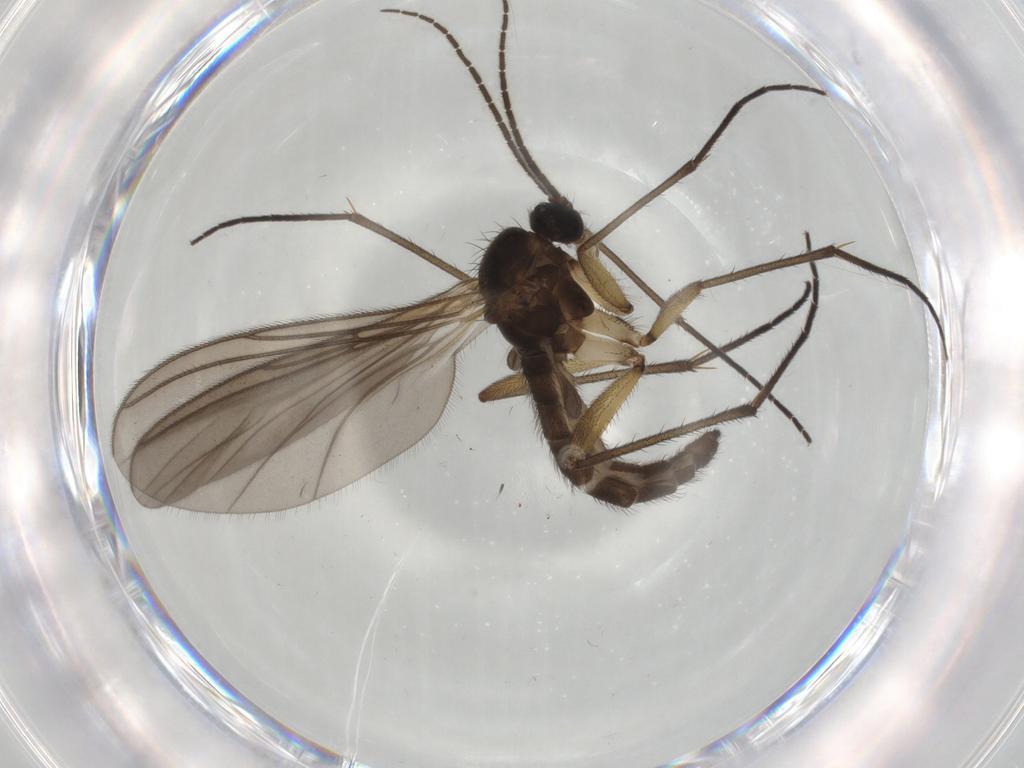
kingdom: Animalia
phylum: Arthropoda
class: Insecta
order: Diptera
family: Sciaridae
